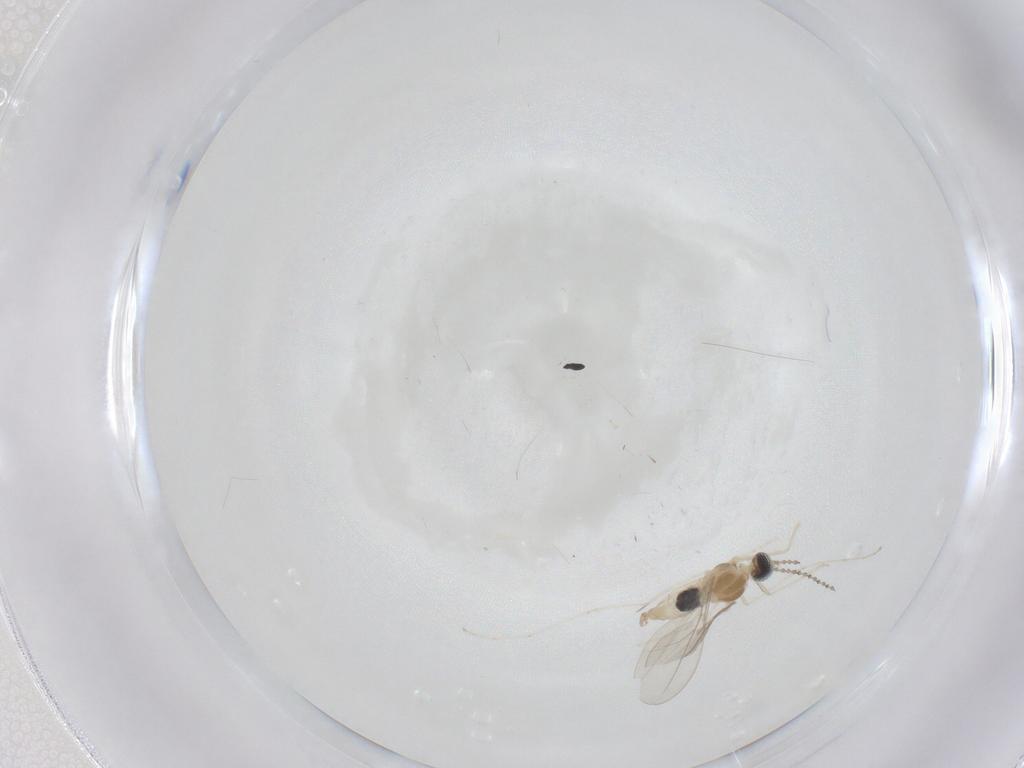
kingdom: Animalia
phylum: Arthropoda
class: Insecta
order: Diptera
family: Cecidomyiidae
